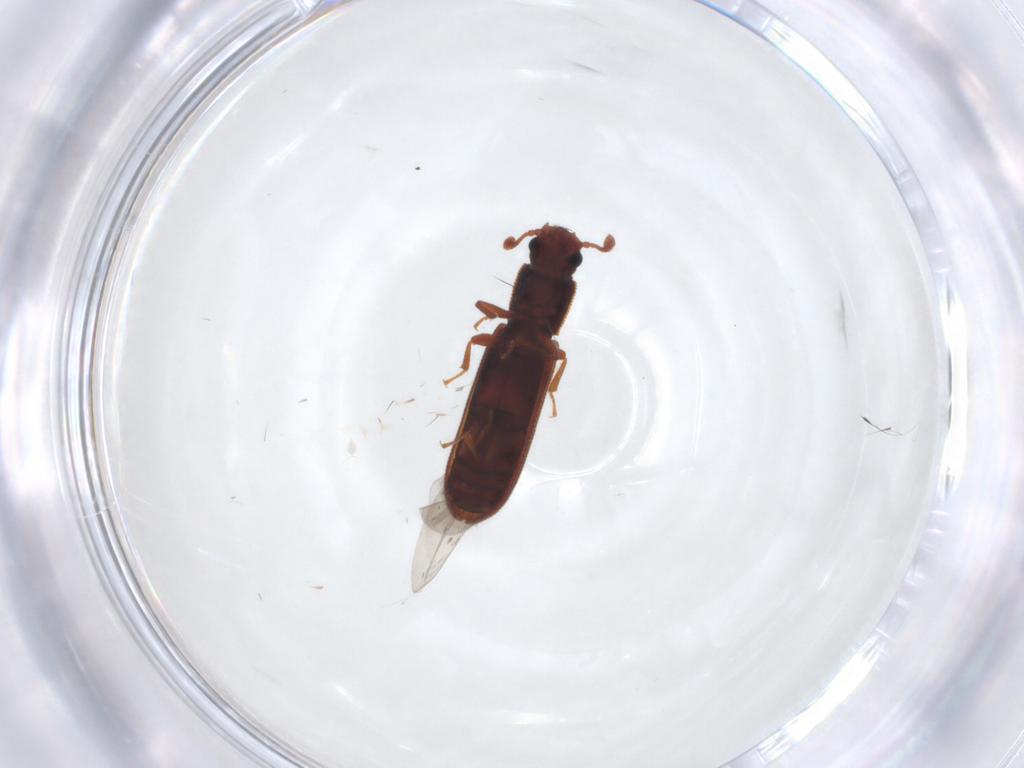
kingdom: Animalia
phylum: Arthropoda
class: Insecta
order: Coleoptera
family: Zopheridae
